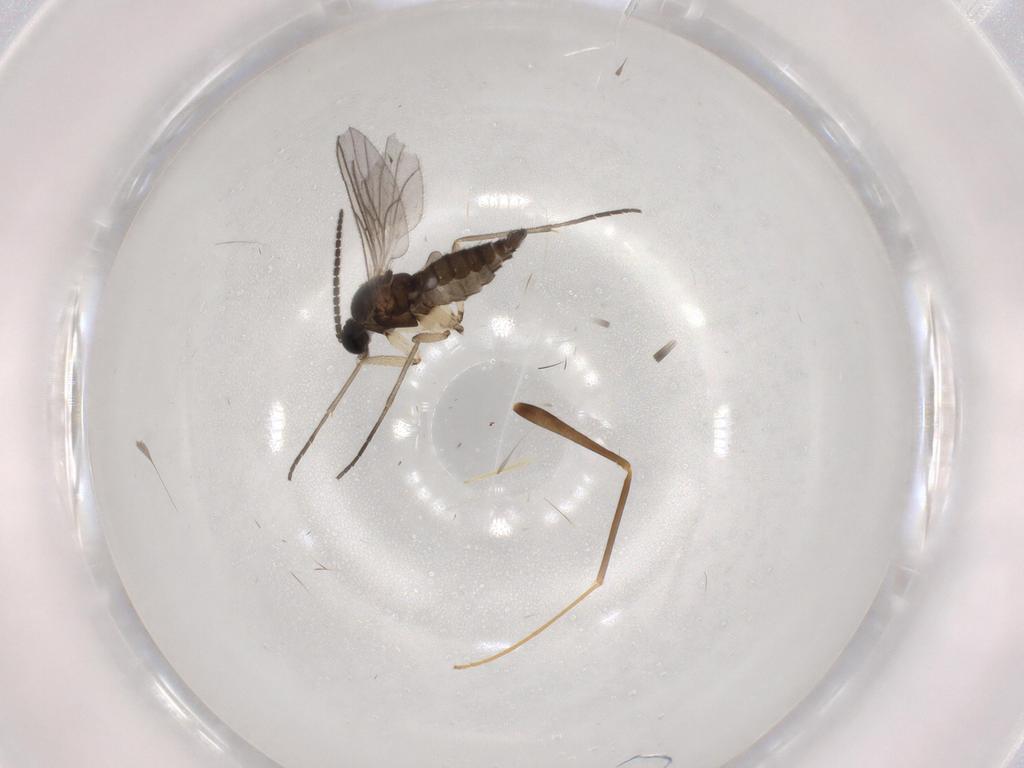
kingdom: Animalia
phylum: Arthropoda
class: Insecta
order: Diptera
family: Sciaridae
